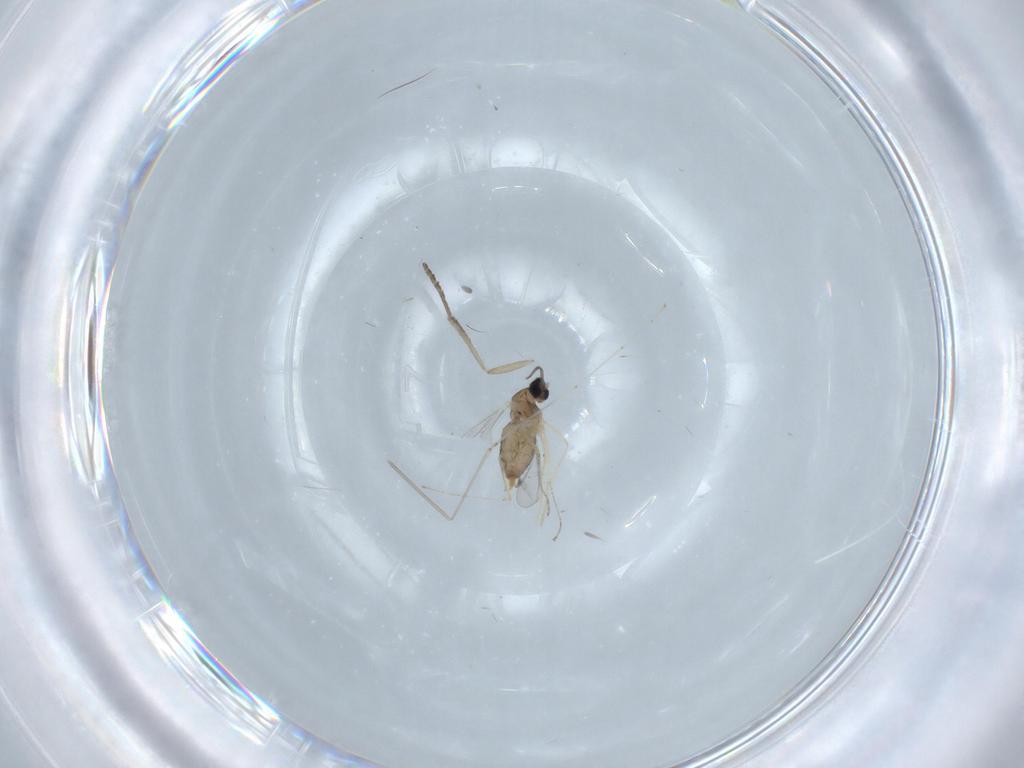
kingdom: Animalia
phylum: Arthropoda
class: Insecta
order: Diptera
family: Cecidomyiidae
